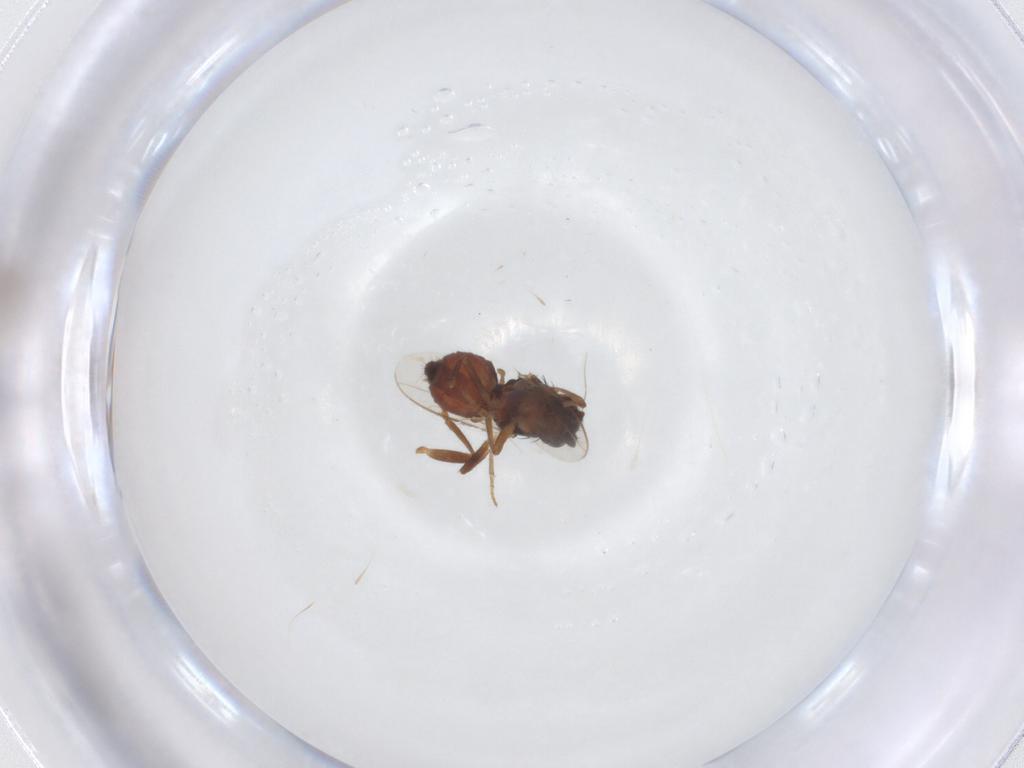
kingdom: Animalia
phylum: Arthropoda
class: Insecta
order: Diptera
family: Sphaeroceridae
